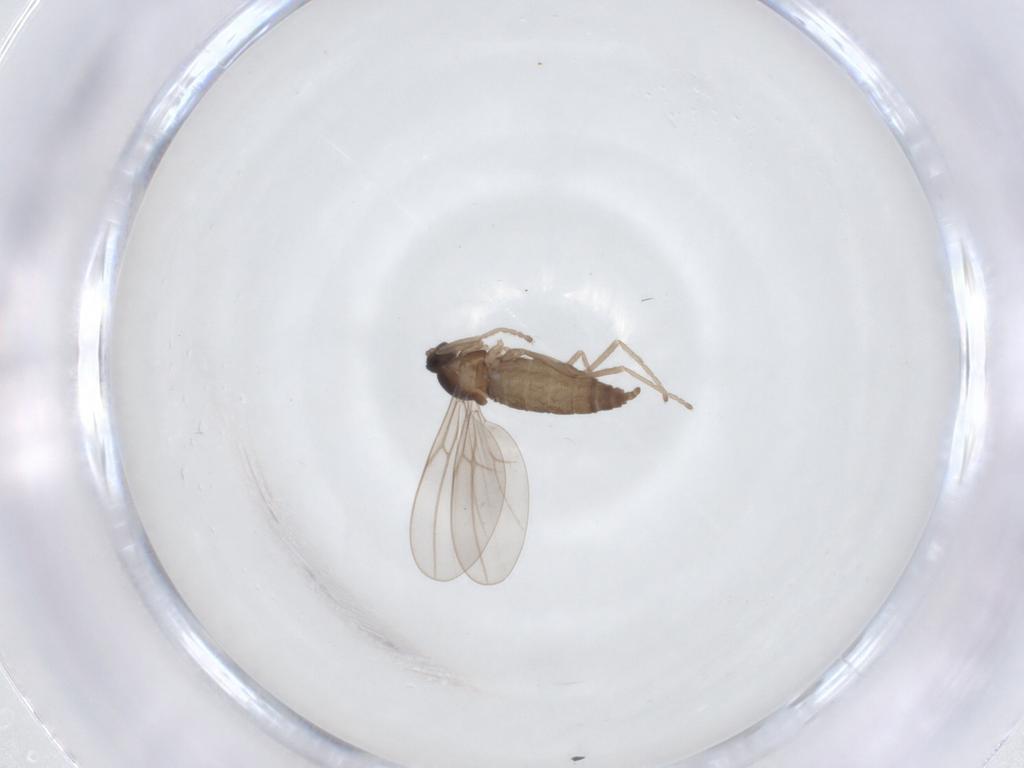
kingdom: Animalia
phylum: Arthropoda
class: Insecta
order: Diptera
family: Cecidomyiidae
